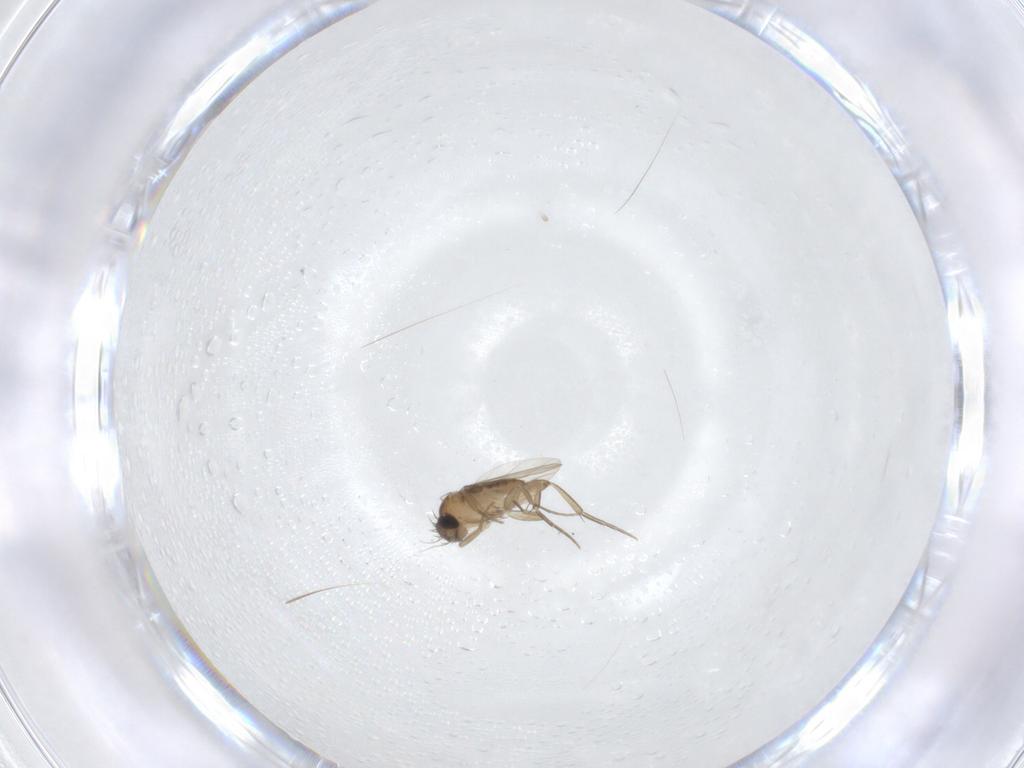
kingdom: Animalia
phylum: Arthropoda
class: Insecta
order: Diptera
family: Phoridae
